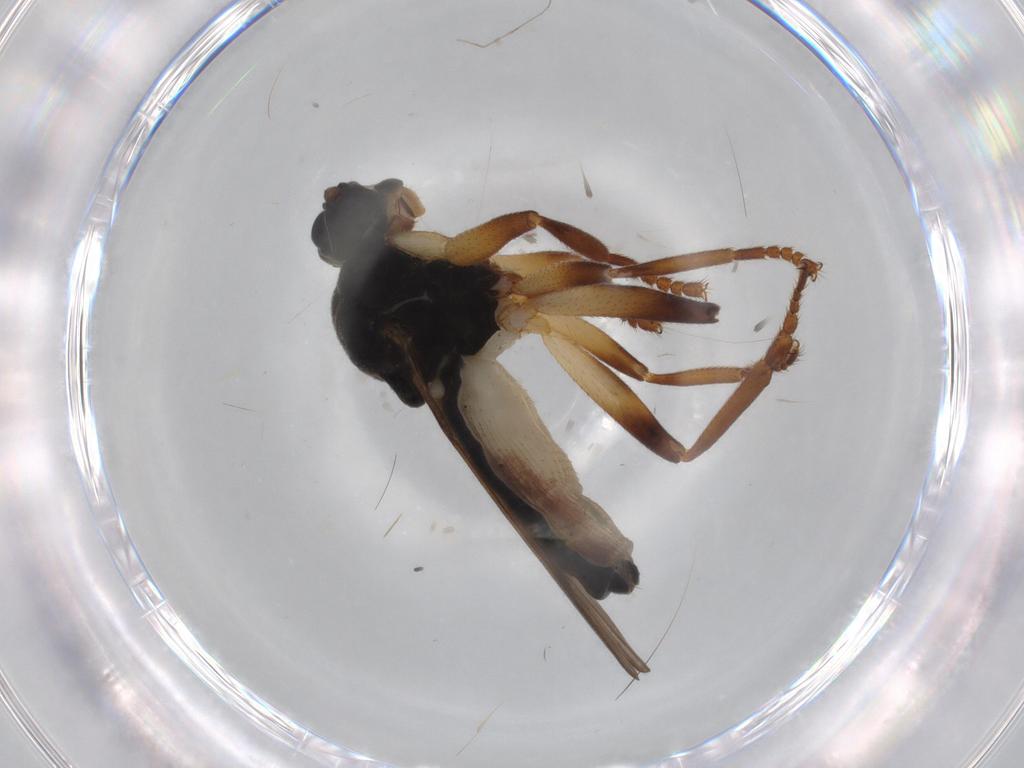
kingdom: Animalia
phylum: Arthropoda
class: Insecta
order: Diptera
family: Sphaeroceridae
